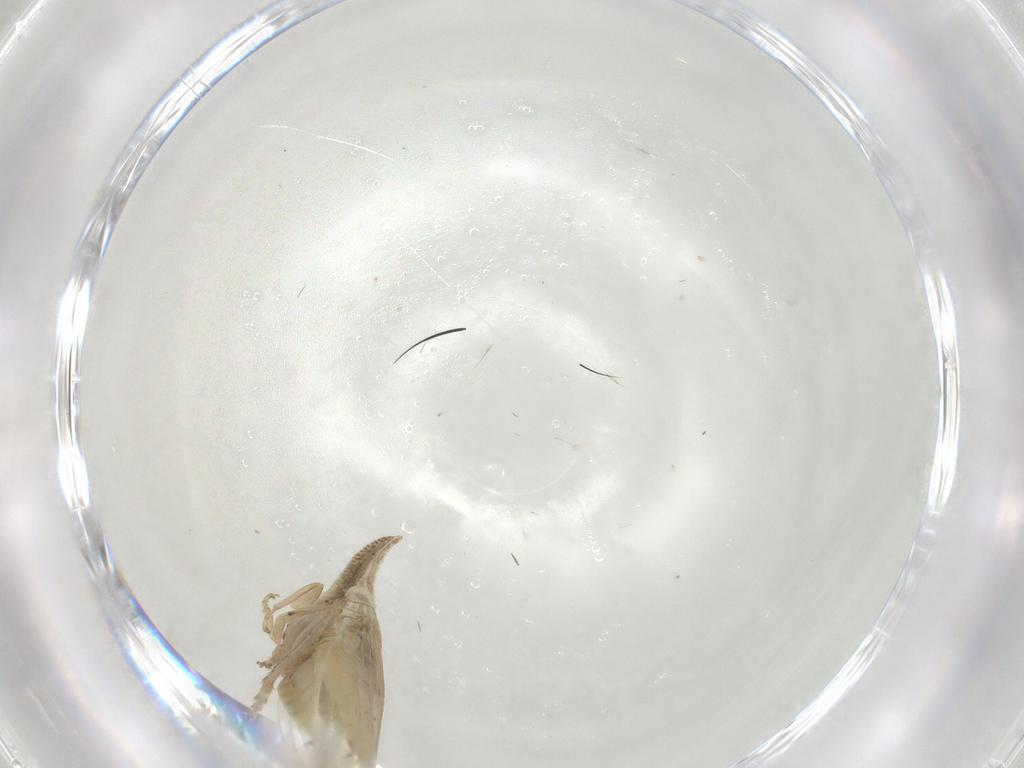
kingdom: Animalia
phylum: Arthropoda
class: Insecta
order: Hemiptera
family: Cicadellidae
